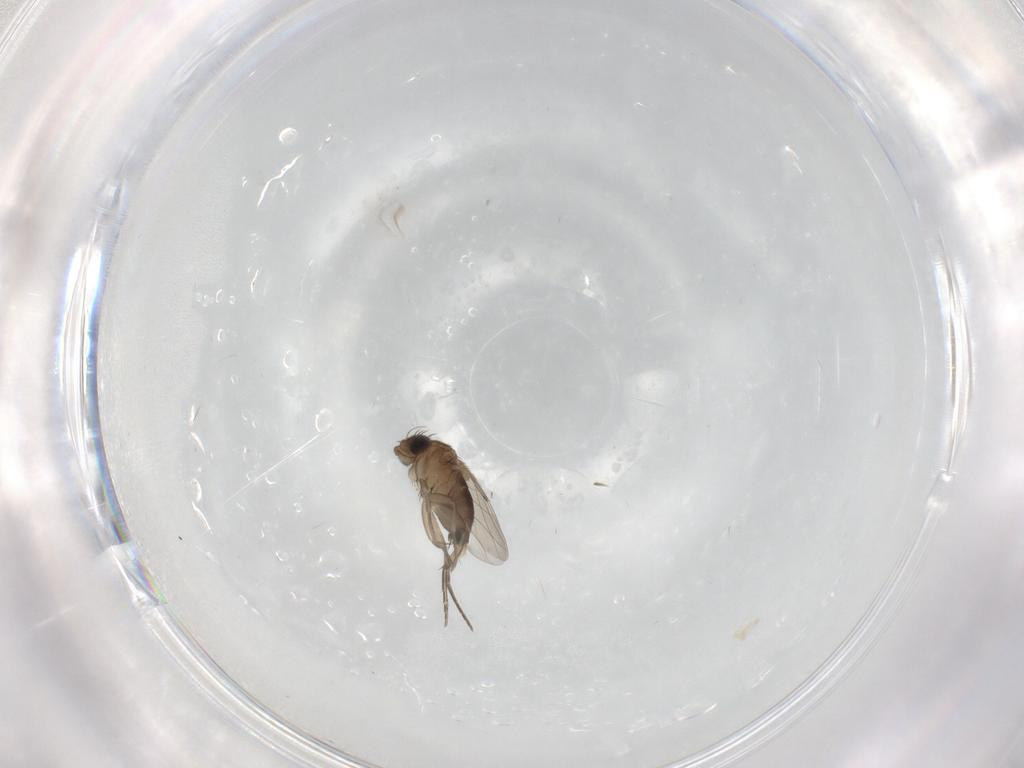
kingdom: Animalia
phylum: Arthropoda
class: Insecta
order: Diptera
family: Tipulidae
